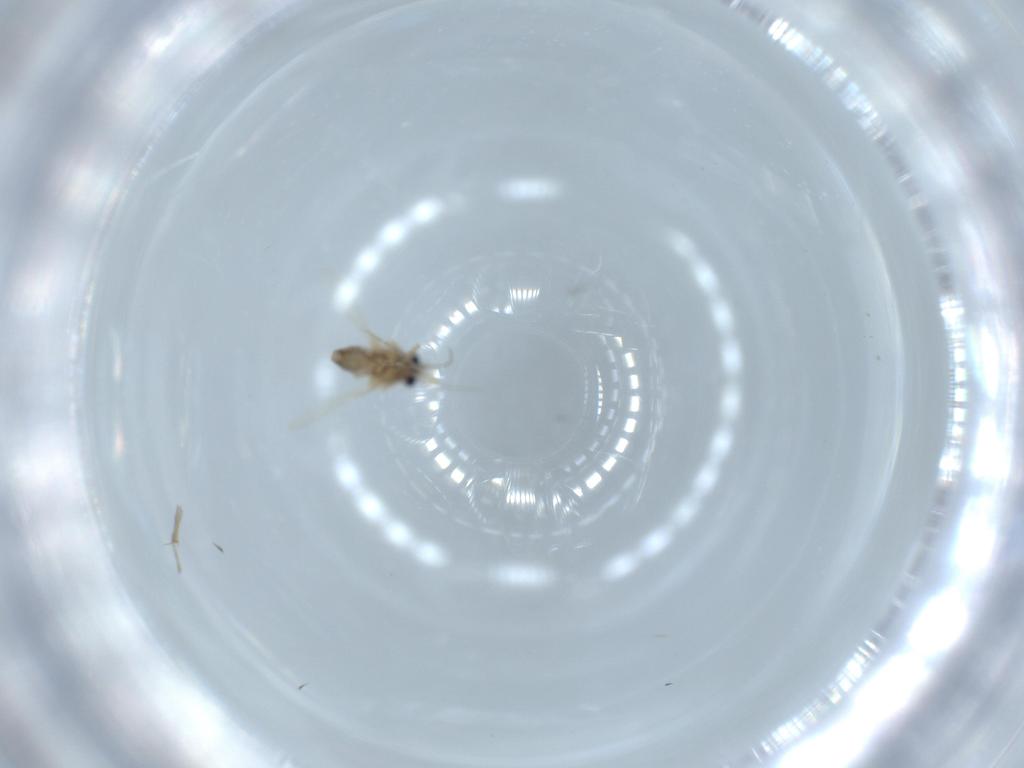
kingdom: Animalia
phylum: Arthropoda
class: Insecta
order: Diptera
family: Ceratopogonidae
